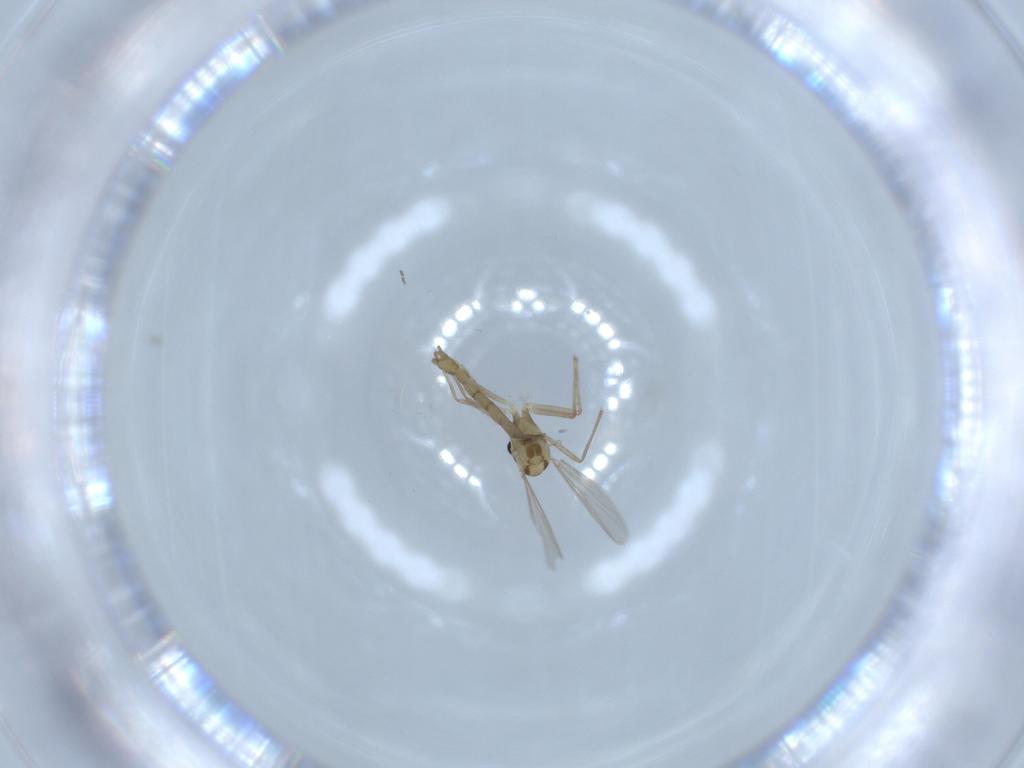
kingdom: Animalia
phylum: Arthropoda
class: Insecta
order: Diptera
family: Chironomidae
